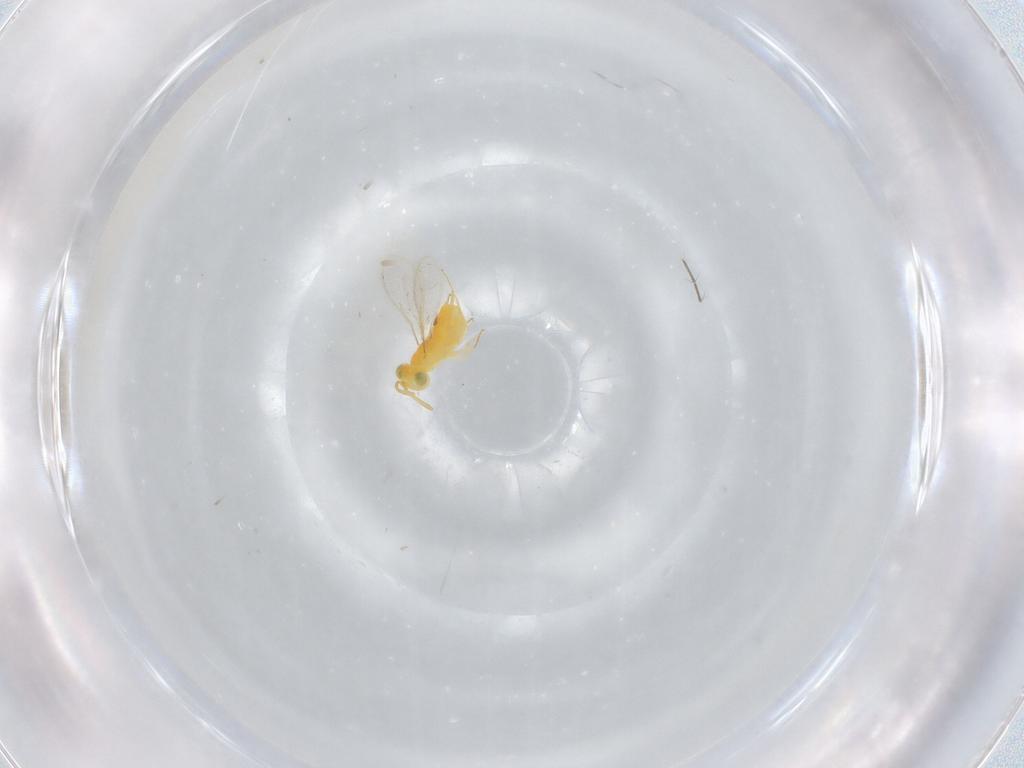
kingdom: Animalia
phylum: Arthropoda
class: Insecta
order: Hymenoptera
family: Aphelinidae
